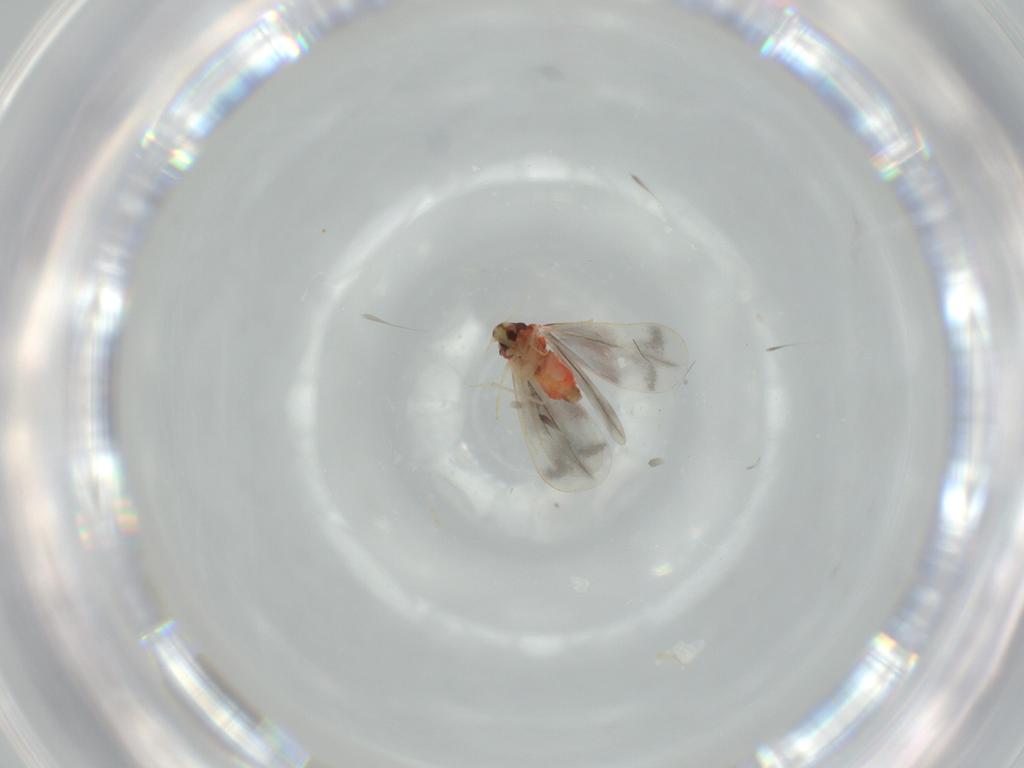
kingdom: Animalia
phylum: Arthropoda
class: Insecta
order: Hemiptera
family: Aleyrodidae
